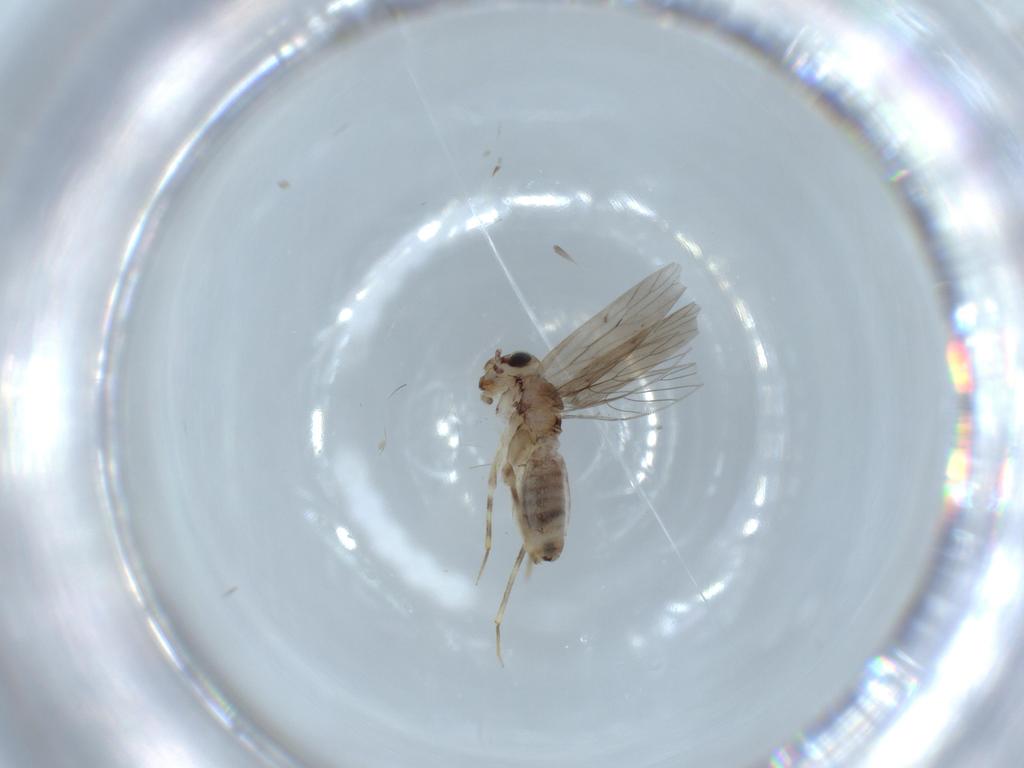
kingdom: Animalia
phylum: Arthropoda
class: Insecta
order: Psocodea
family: Lepidopsocidae
